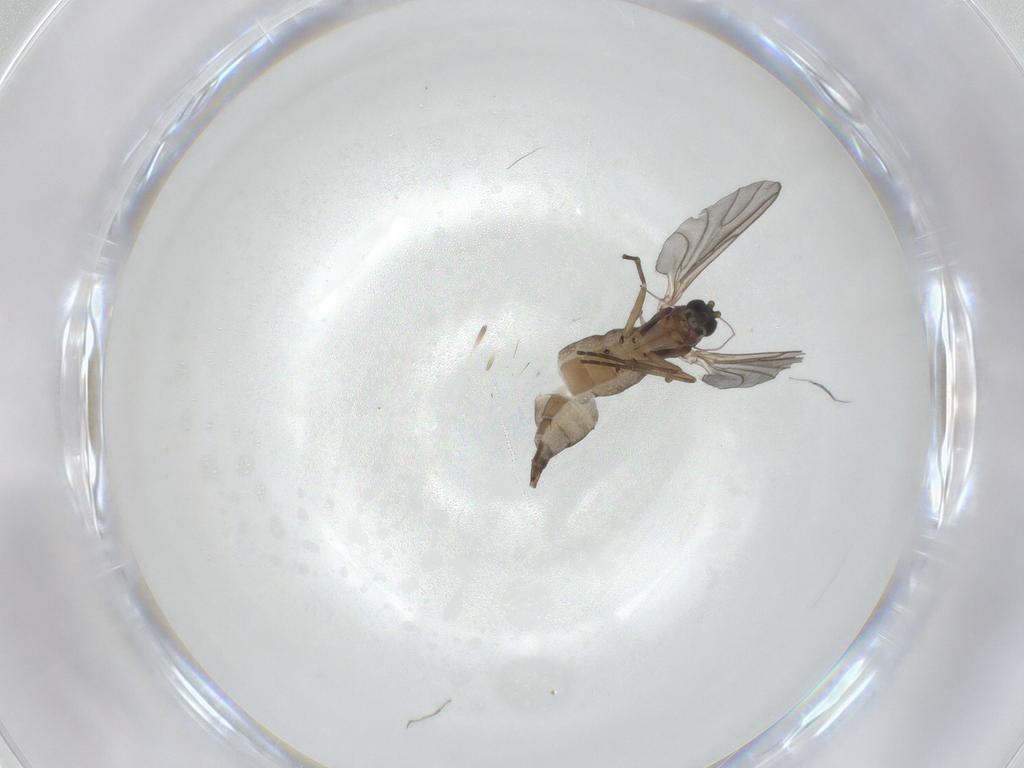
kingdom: Animalia
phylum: Arthropoda
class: Insecta
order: Diptera
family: Sciaridae
